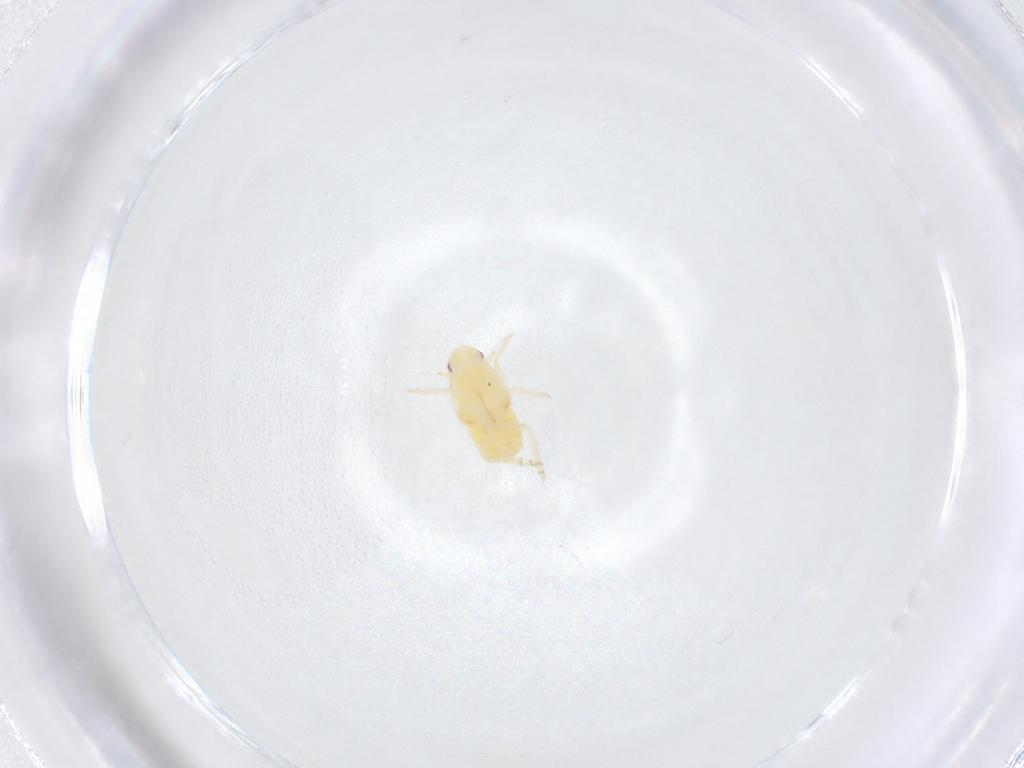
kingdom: Animalia
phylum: Arthropoda
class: Insecta
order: Hemiptera
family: Flatidae
